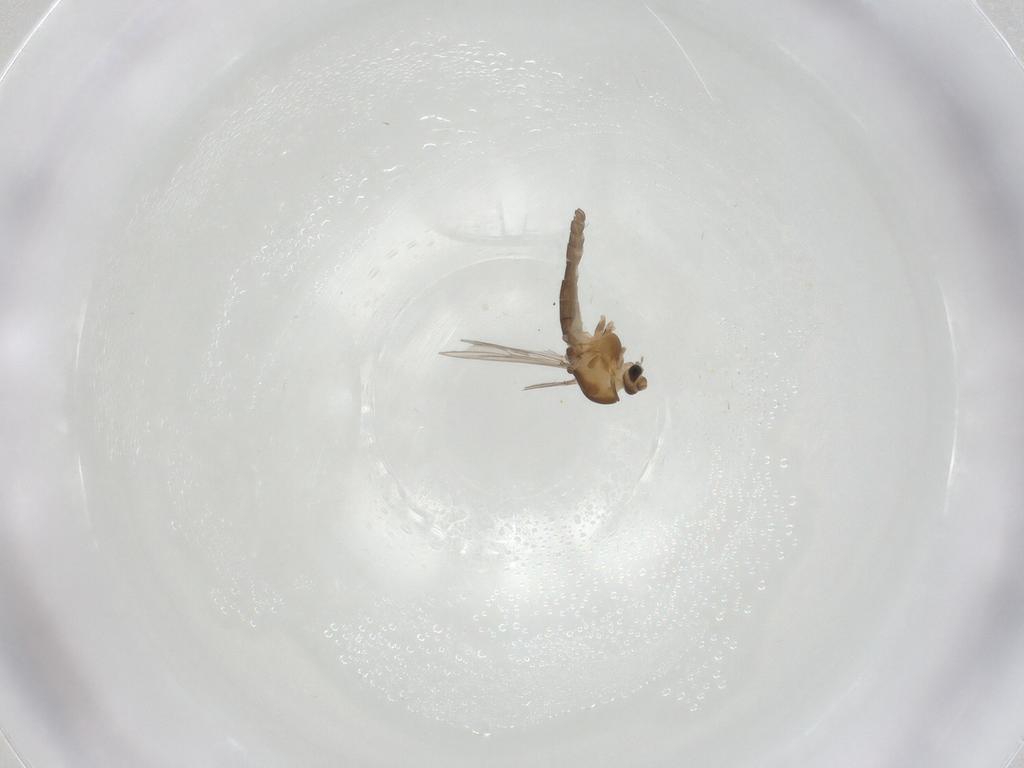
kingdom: Animalia
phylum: Arthropoda
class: Insecta
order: Diptera
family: Chironomidae
